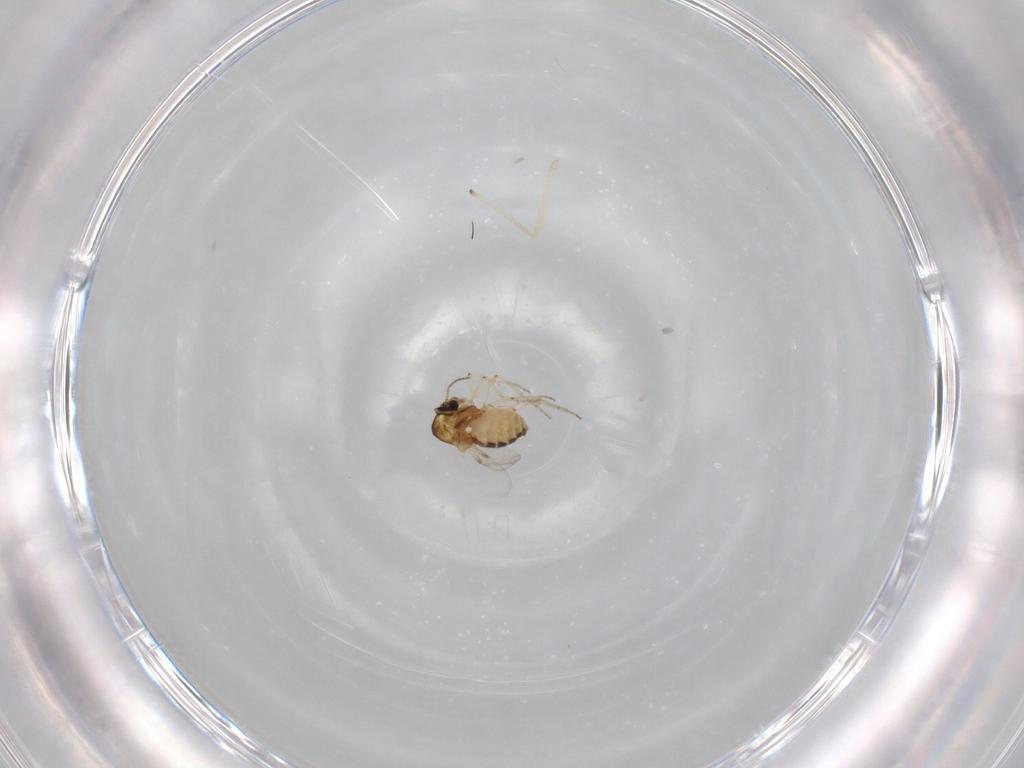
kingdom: Animalia
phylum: Arthropoda
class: Insecta
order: Diptera
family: Ceratopogonidae
